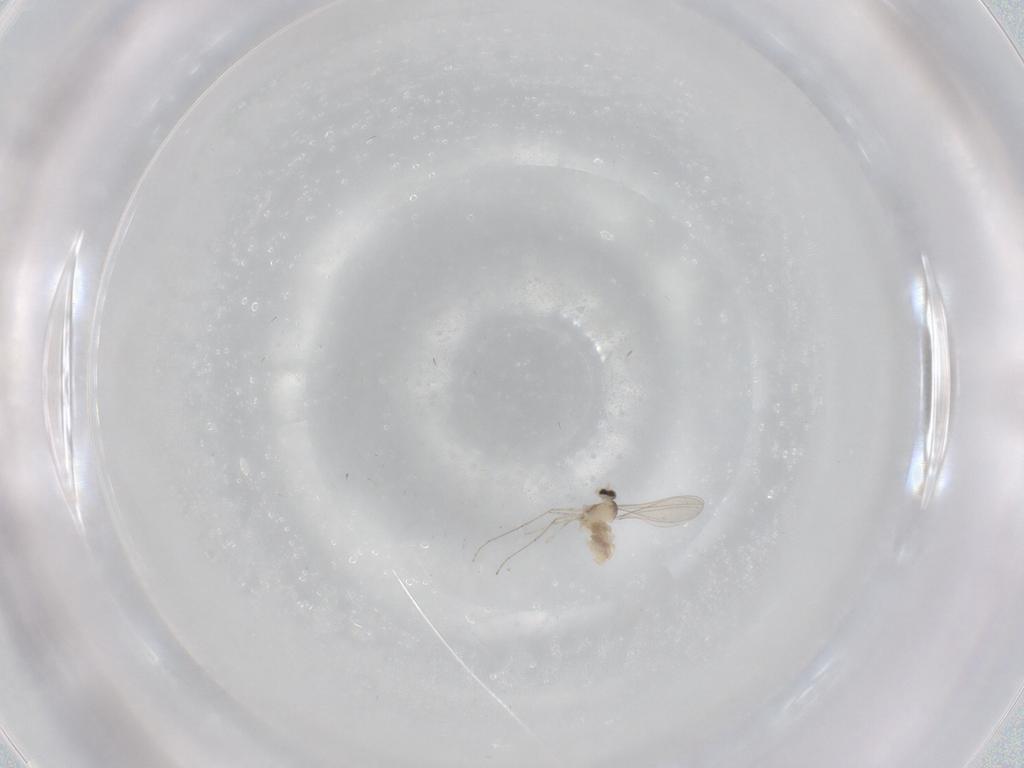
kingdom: Animalia
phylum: Arthropoda
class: Insecta
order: Diptera
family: Cecidomyiidae
